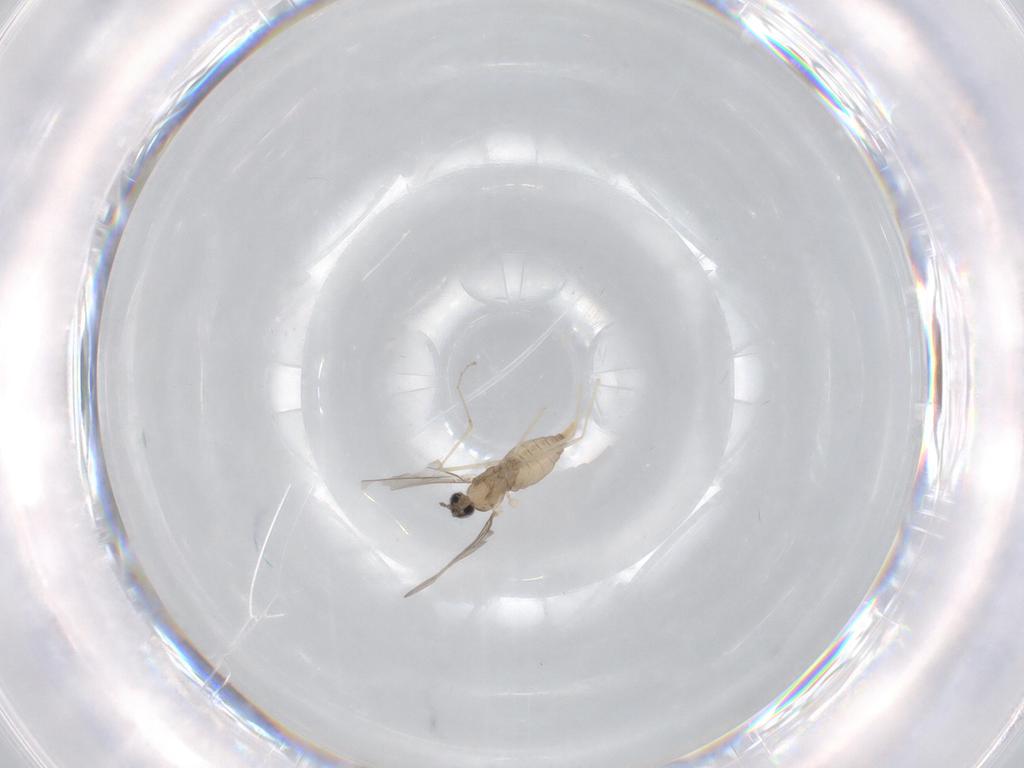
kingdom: Animalia
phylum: Arthropoda
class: Insecta
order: Diptera
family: Cecidomyiidae
